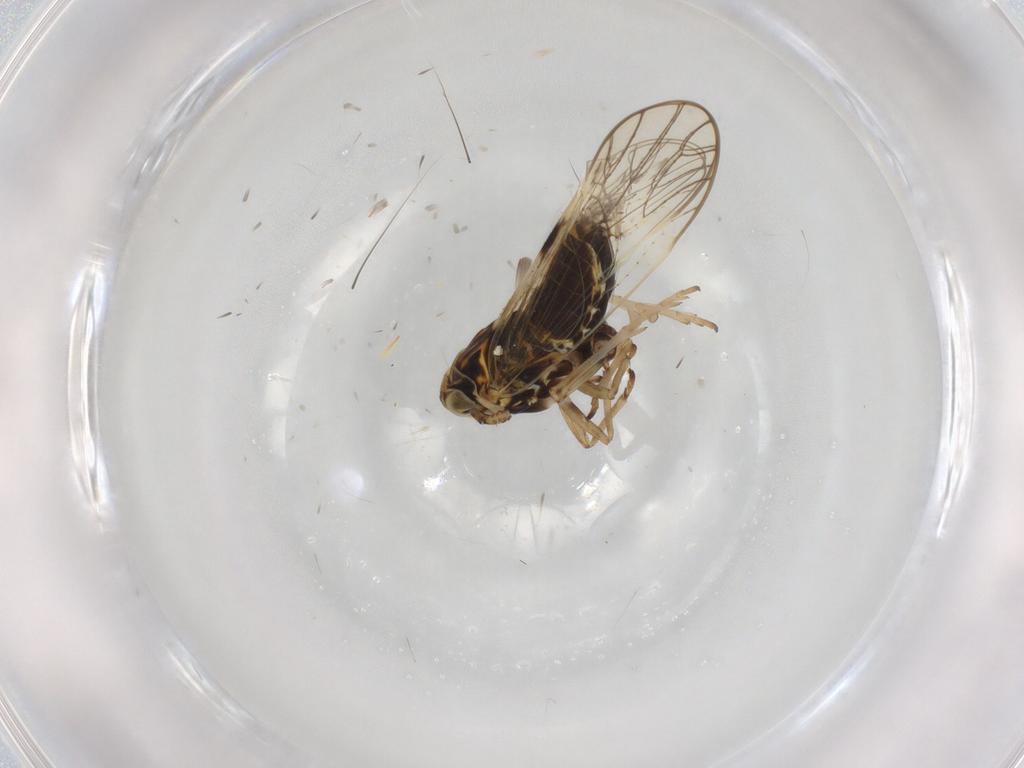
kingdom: Animalia
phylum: Arthropoda
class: Insecta
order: Hemiptera
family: Delphacidae
